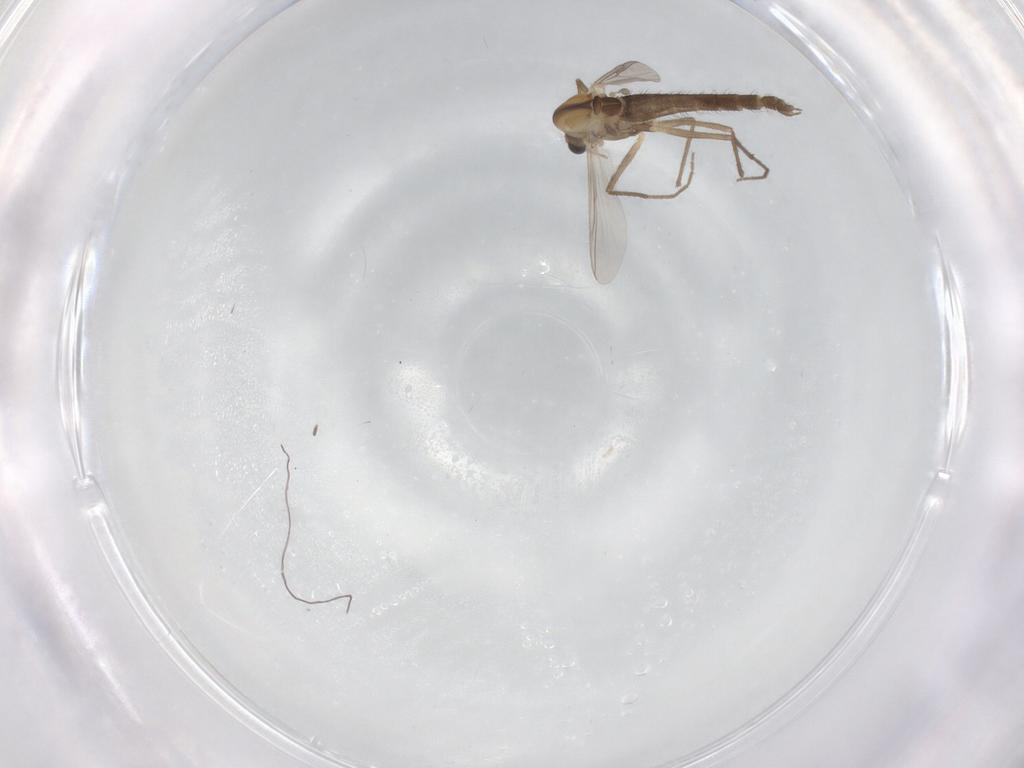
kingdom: Animalia
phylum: Arthropoda
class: Insecta
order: Diptera
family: Chironomidae
